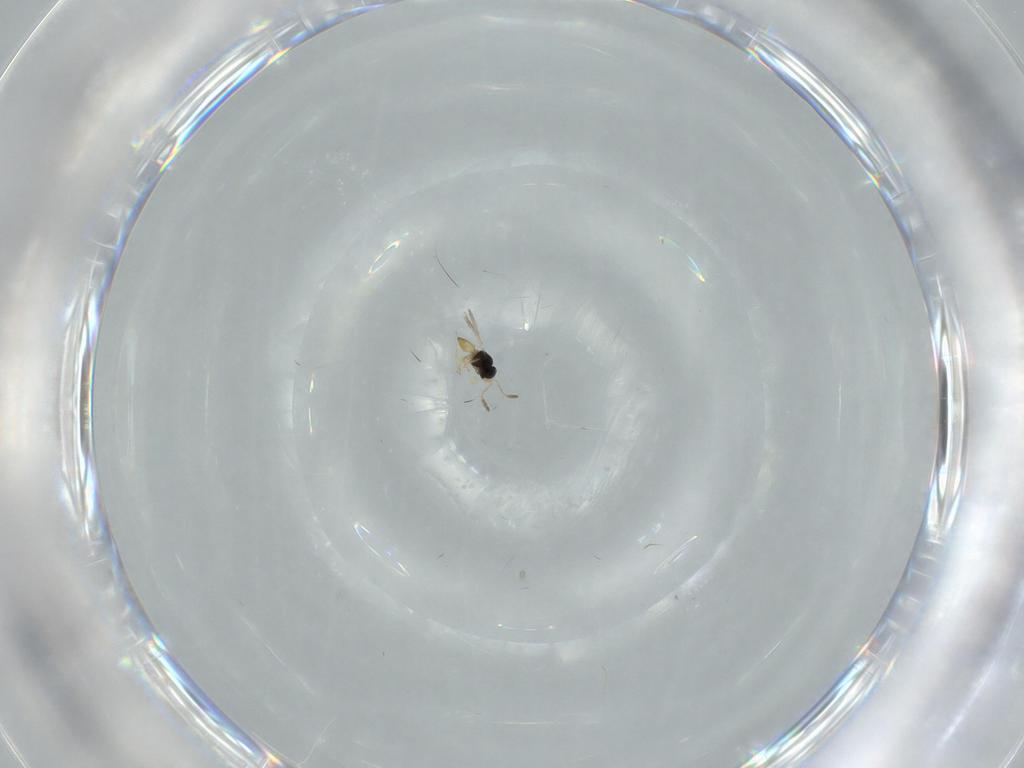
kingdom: Animalia
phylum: Arthropoda
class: Insecta
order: Hymenoptera
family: Scelionidae
